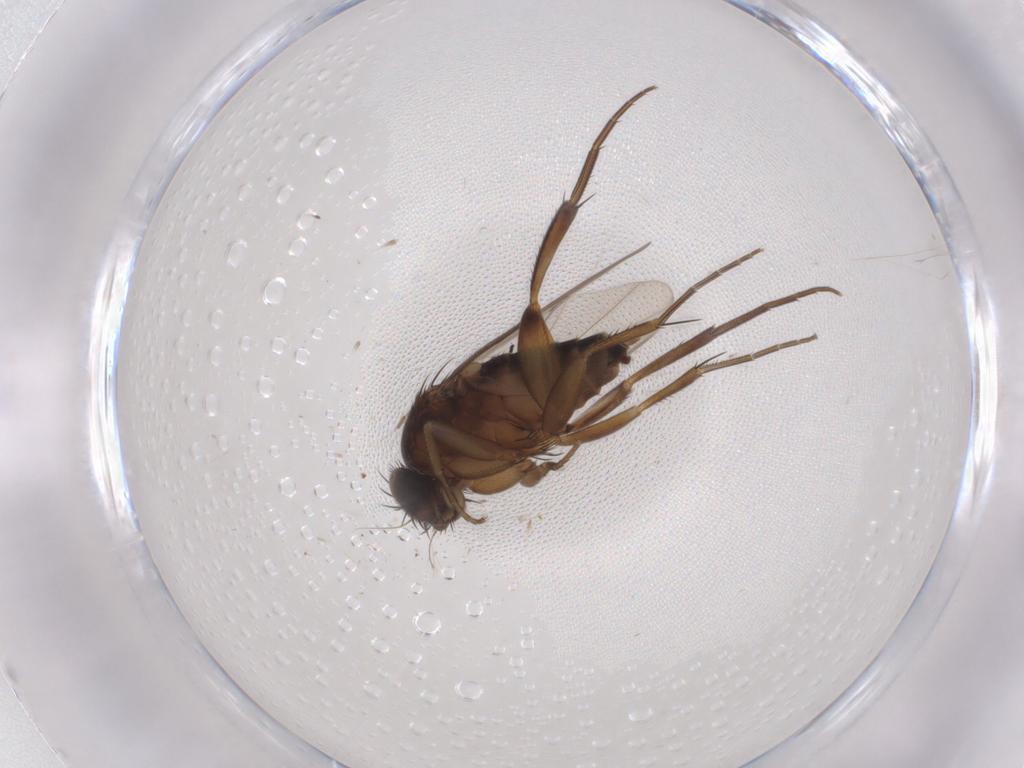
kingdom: Animalia
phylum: Arthropoda
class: Insecta
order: Diptera
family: Phoridae
